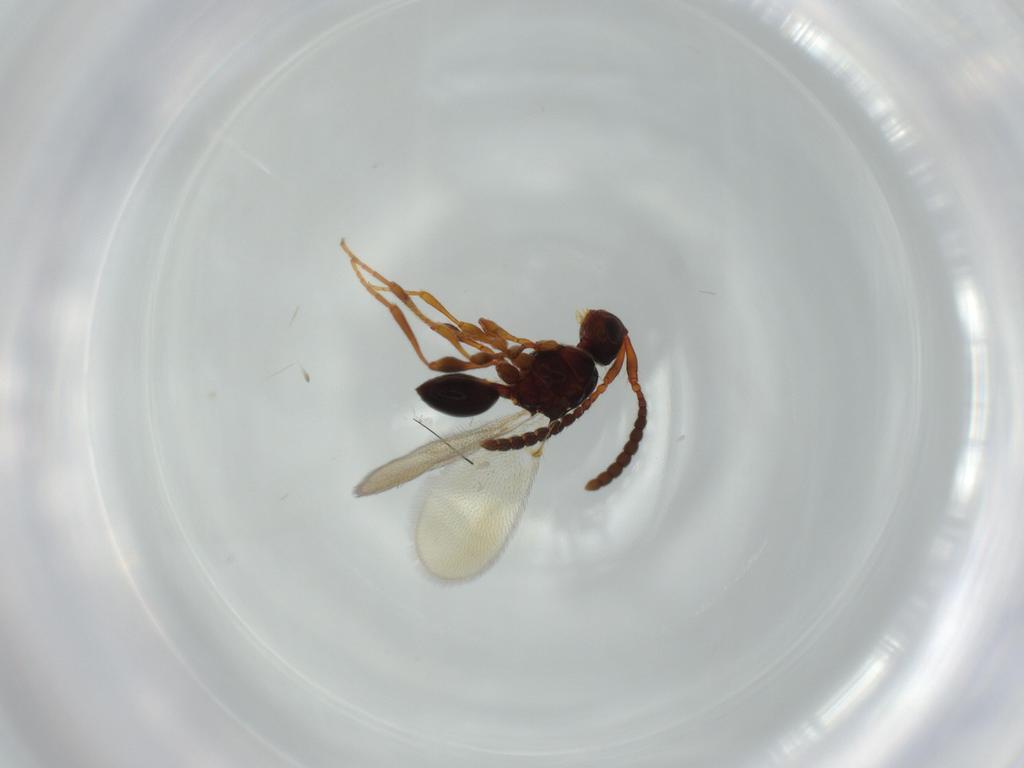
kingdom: Animalia
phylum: Arthropoda
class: Insecta
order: Hymenoptera
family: Diapriidae
